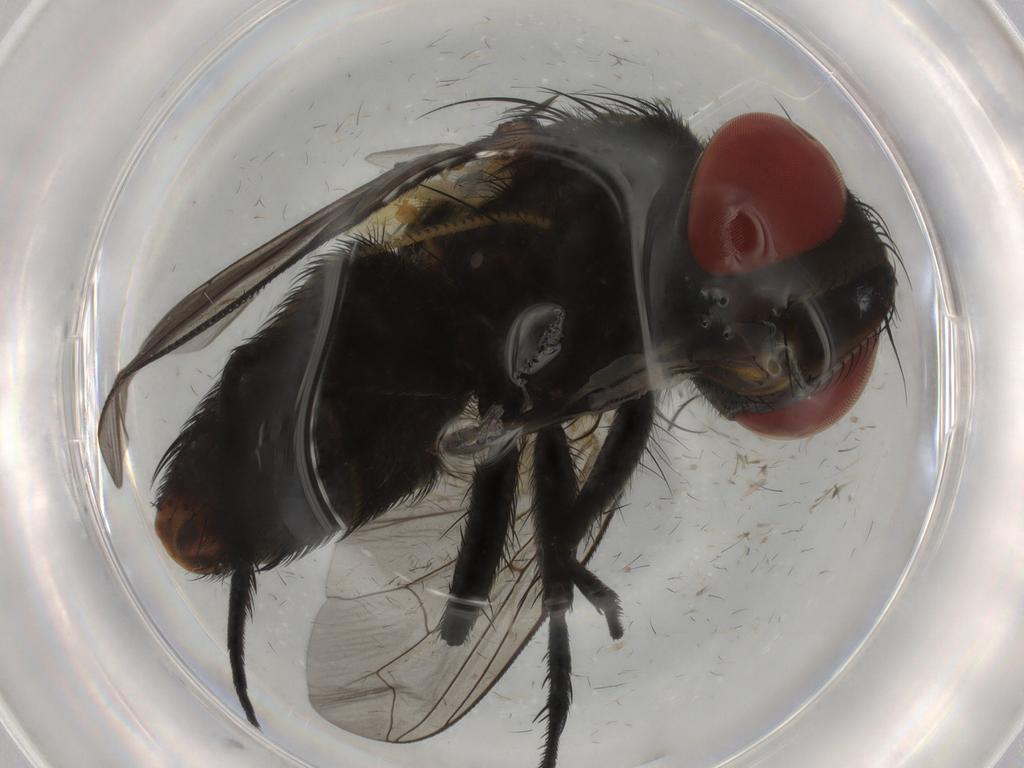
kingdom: Animalia
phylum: Arthropoda
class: Insecta
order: Diptera
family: Sarcophagidae
